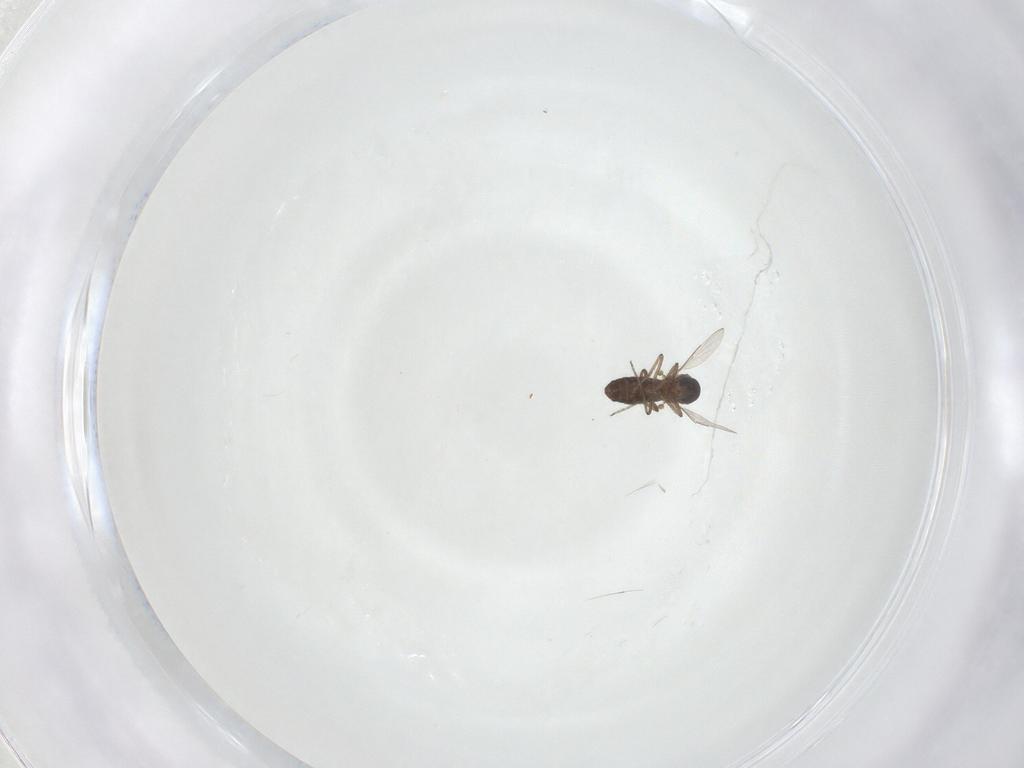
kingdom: Animalia
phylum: Arthropoda
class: Insecta
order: Diptera
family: Ceratopogonidae
